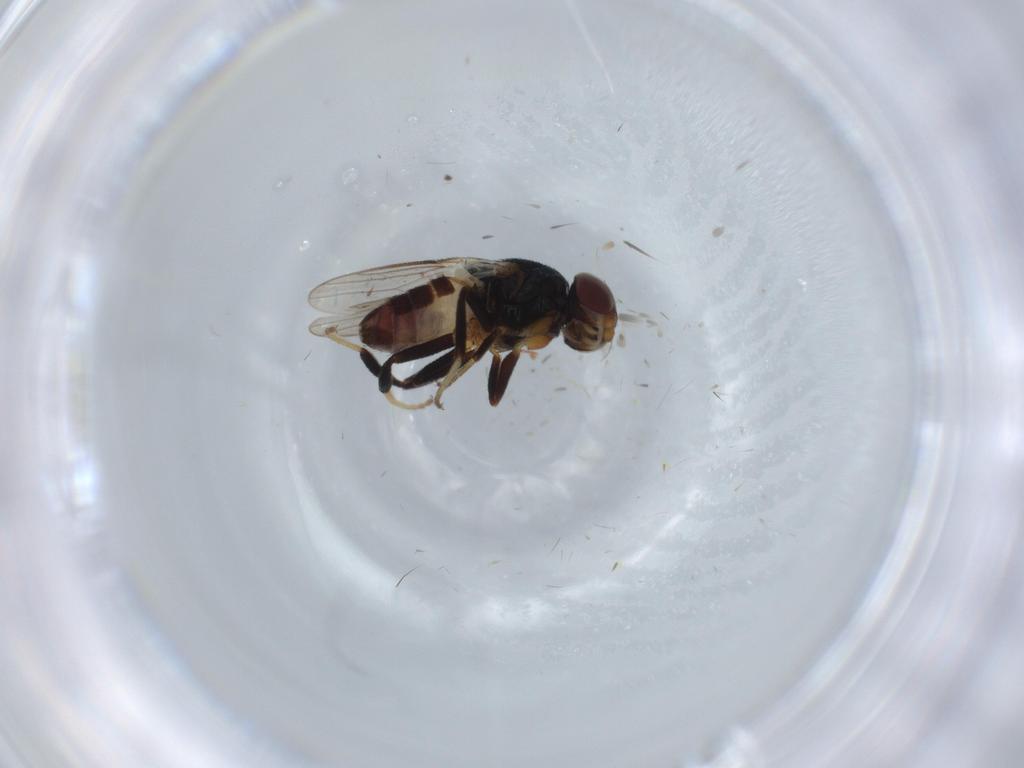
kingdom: Animalia
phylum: Arthropoda
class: Insecta
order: Diptera
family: Chloropidae
